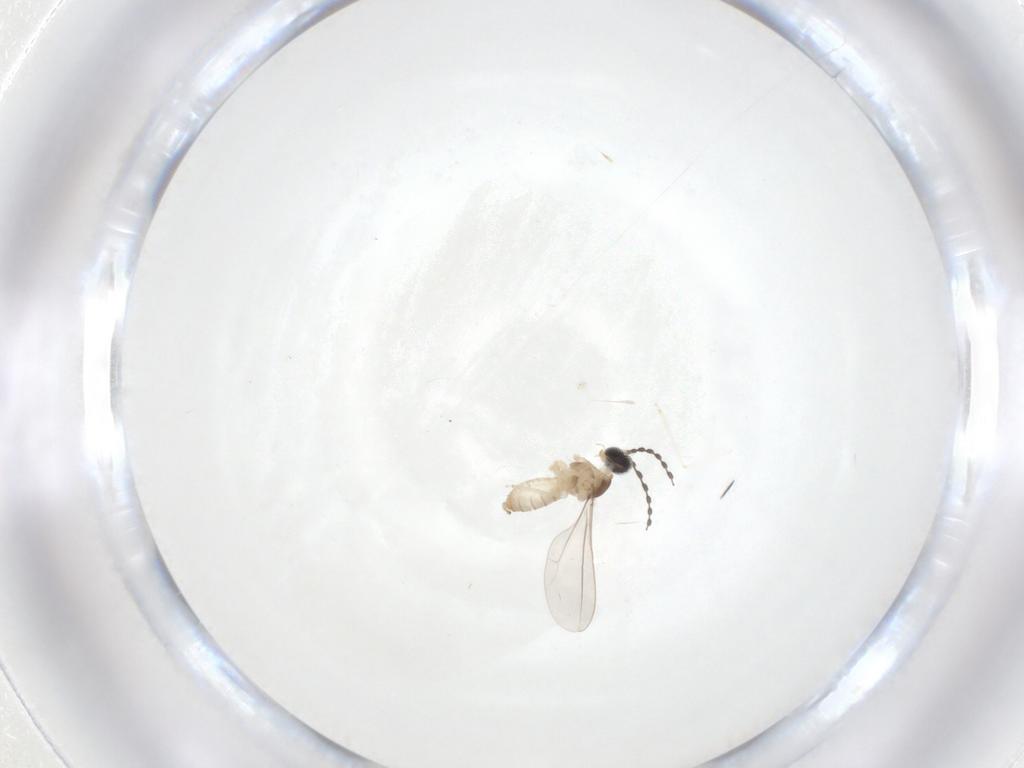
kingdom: Animalia
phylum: Arthropoda
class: Insecta
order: Diptera
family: Cecidomyiidae
